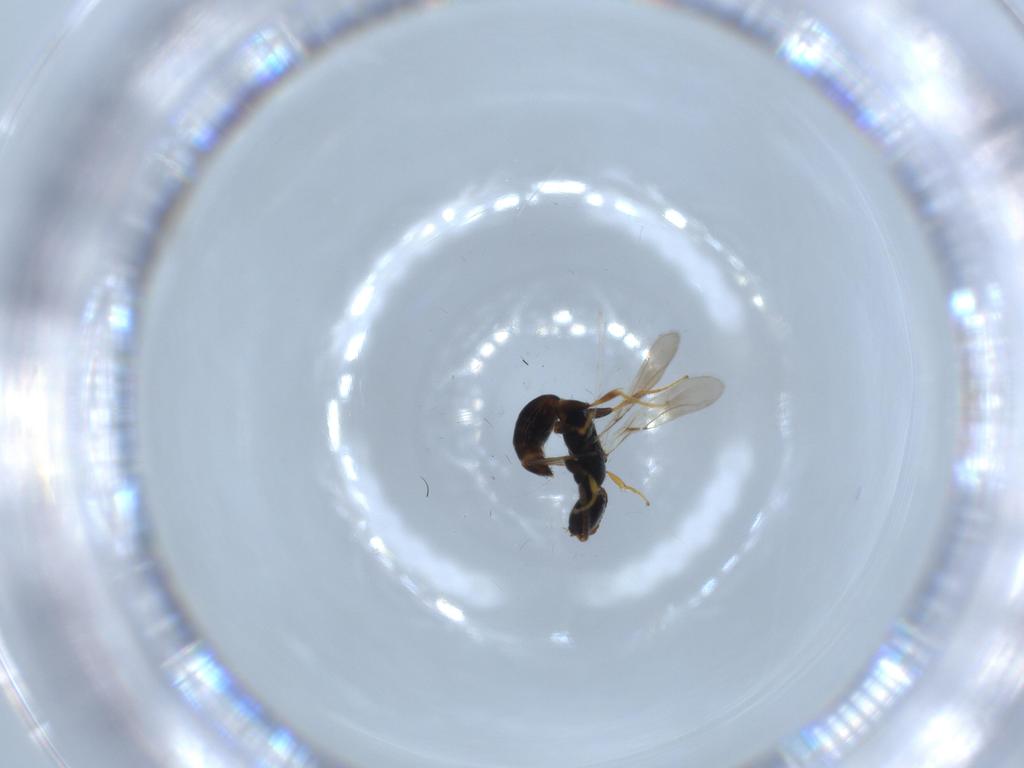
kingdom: Animalia
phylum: Arthropoda
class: Insecta
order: Hymenoptera
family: Bethylidae
